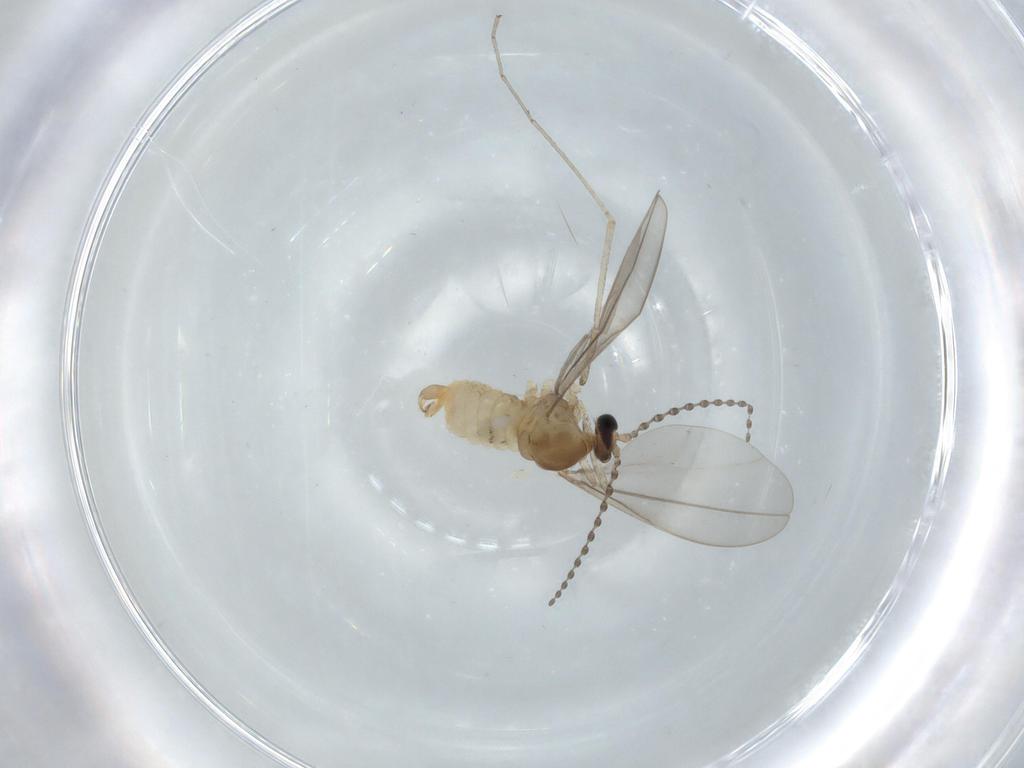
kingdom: Animalia
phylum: Arthropoda
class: Insecta
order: Diptera
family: Cecidomyiidae
